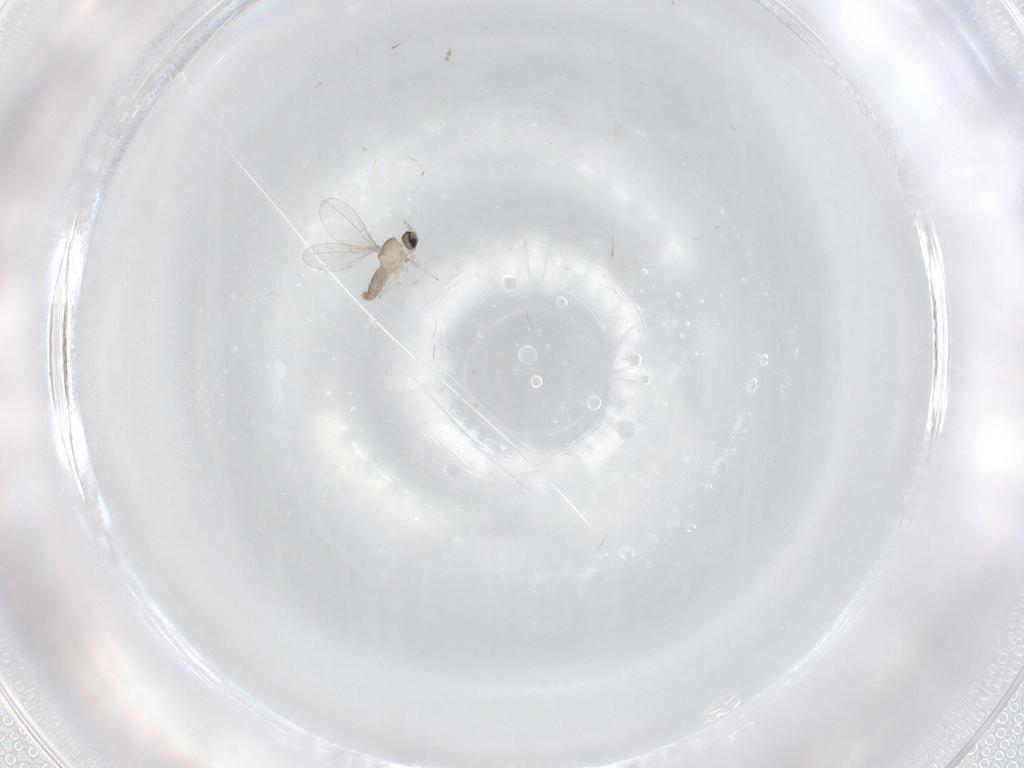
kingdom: Animalia
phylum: Arthropoda
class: Insecta
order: Diptera
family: Cecidomyiidae
